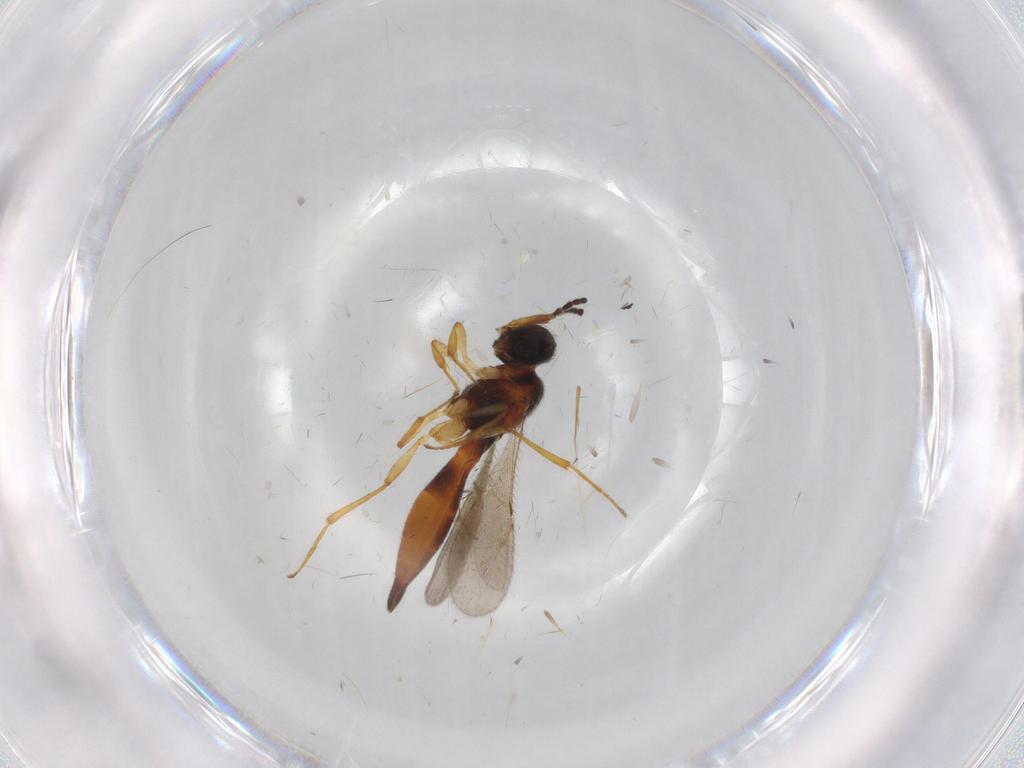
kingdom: Animalia
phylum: Arthropoda
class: Insecta
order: Hymenoptera
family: Scelionidae
